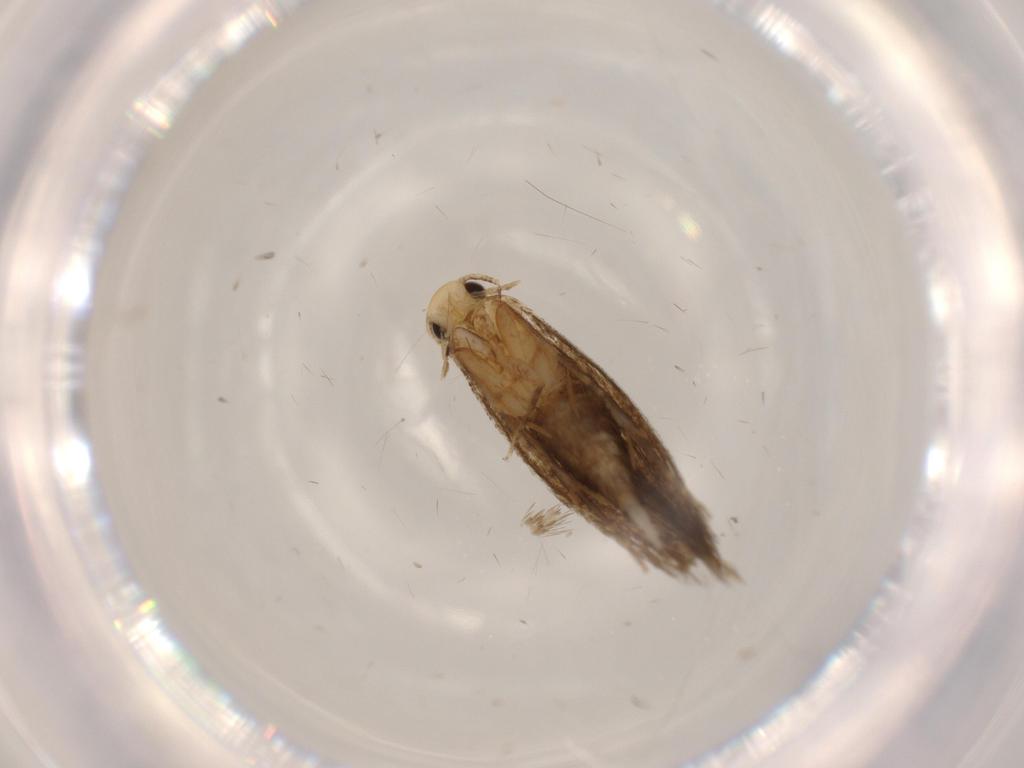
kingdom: Animalia
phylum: Arthropoda
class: Insecta
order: Lepidoptera
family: Tineidae
